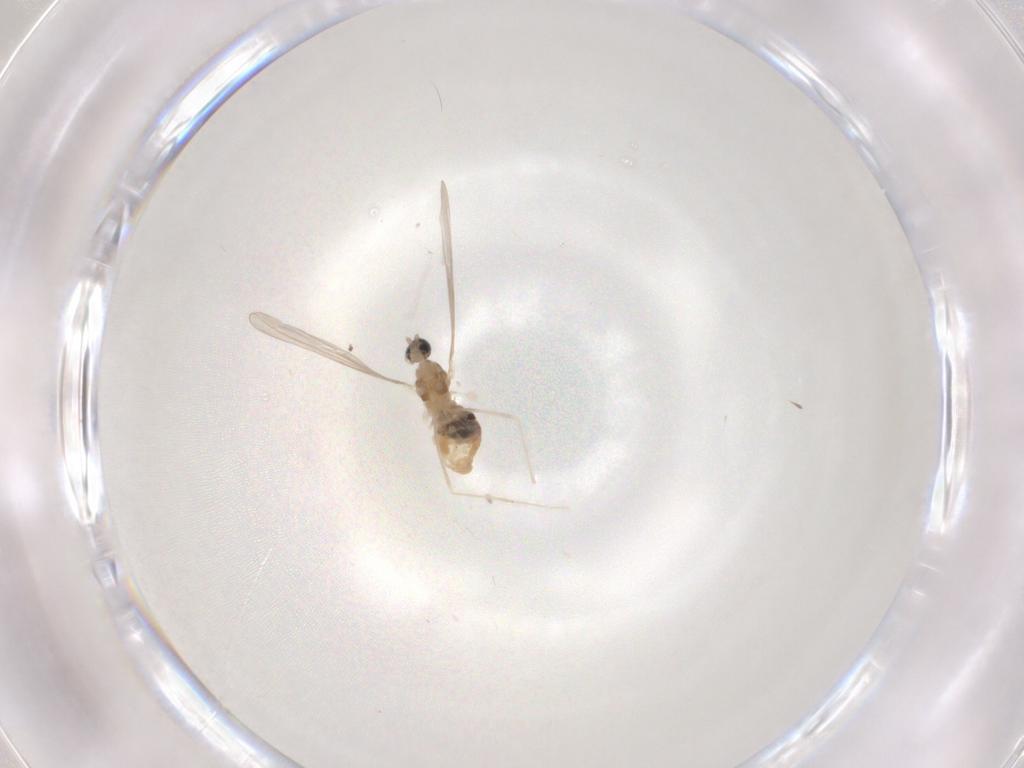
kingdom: Animalia
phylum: Arthropoda
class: Insecta
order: Diptera
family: Cecidomyiidae
